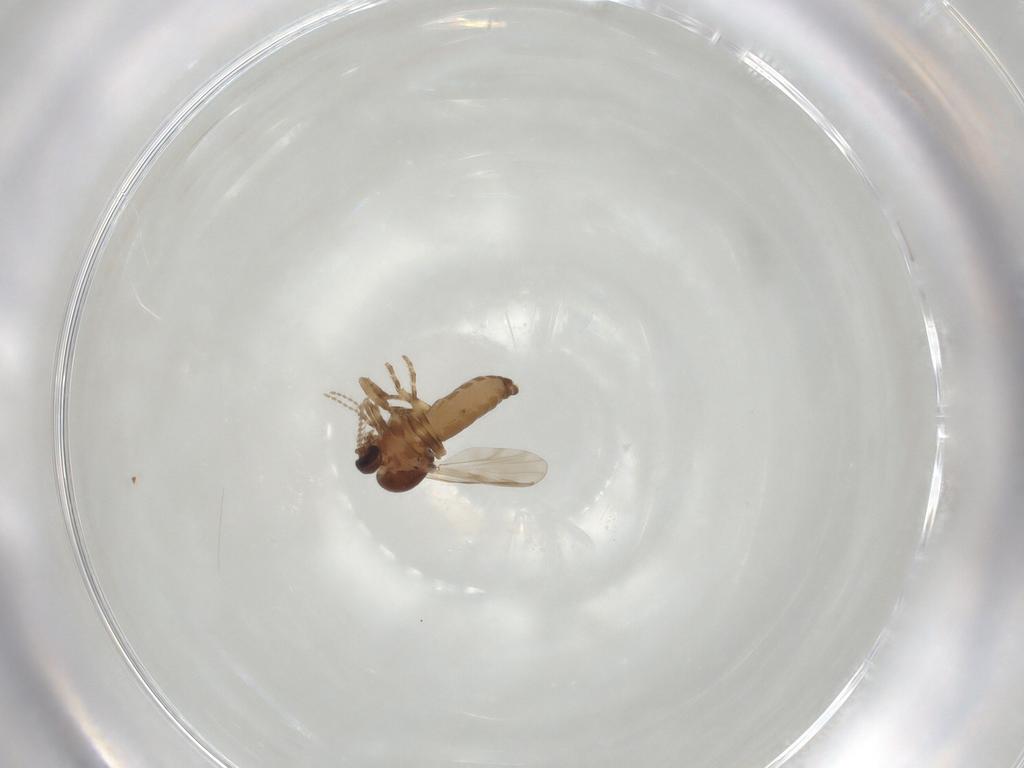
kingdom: Animalia
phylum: Arthropoda
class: Insecta
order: Diptera
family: Ceratopogonidae
